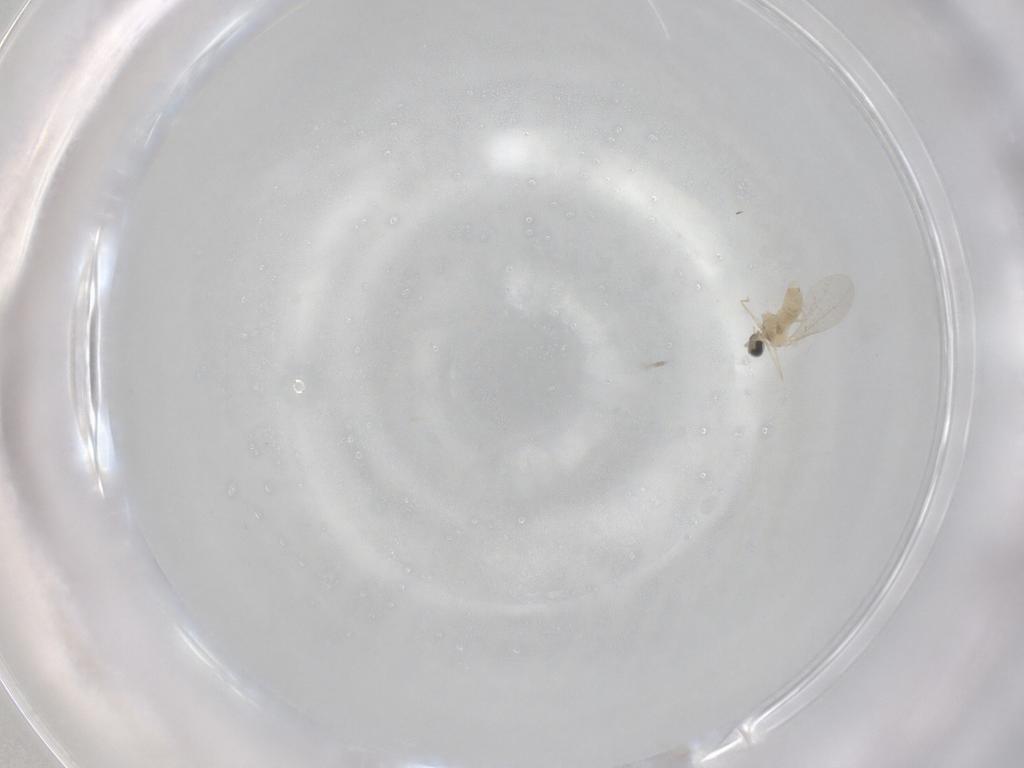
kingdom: Animalia
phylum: Arthropoda
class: Insecta
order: Diptera
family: Cecidomyiidae
